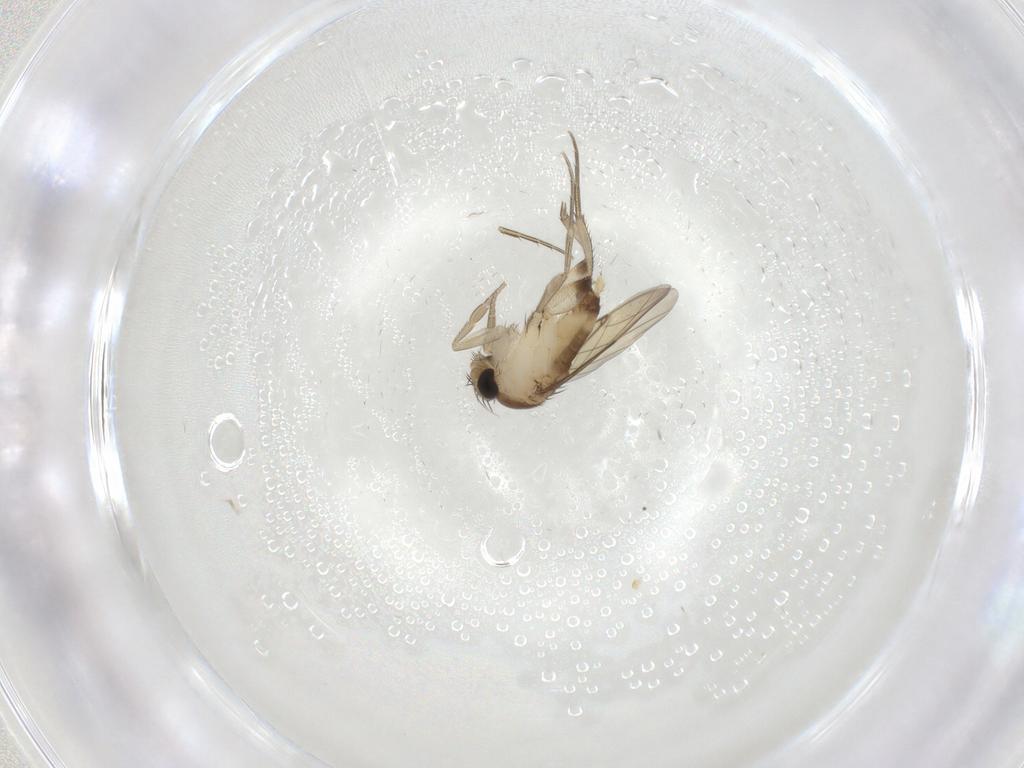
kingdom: Animalia
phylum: Arthropoda
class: Insecta
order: Diptera
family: Phoridae
